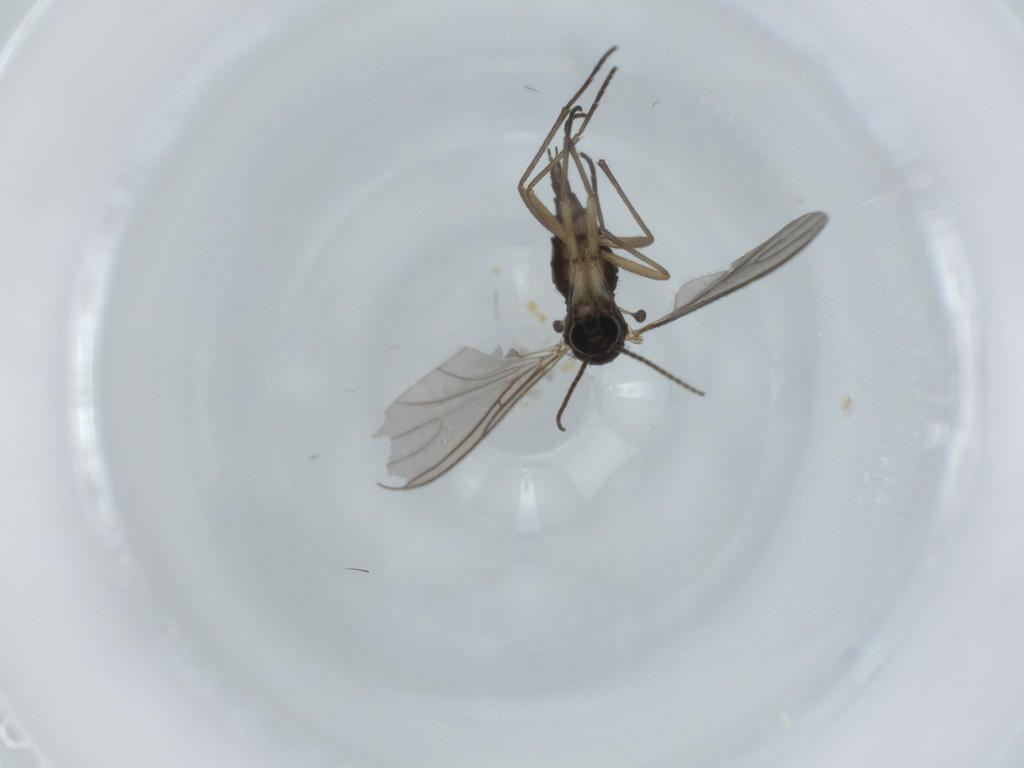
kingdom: Animalia
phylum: Arthropoda
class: Insecta
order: Diptera
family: Sciaridae
